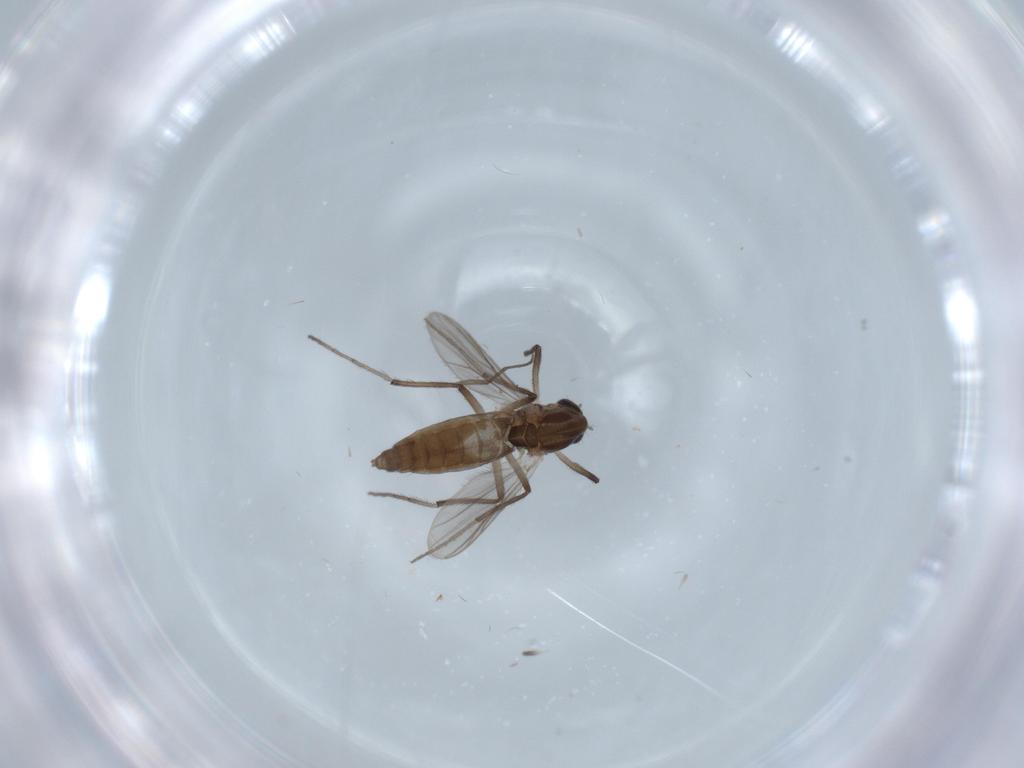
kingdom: Animalia
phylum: Arthropoda
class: Insecta
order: Diptera
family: Chironomidae
